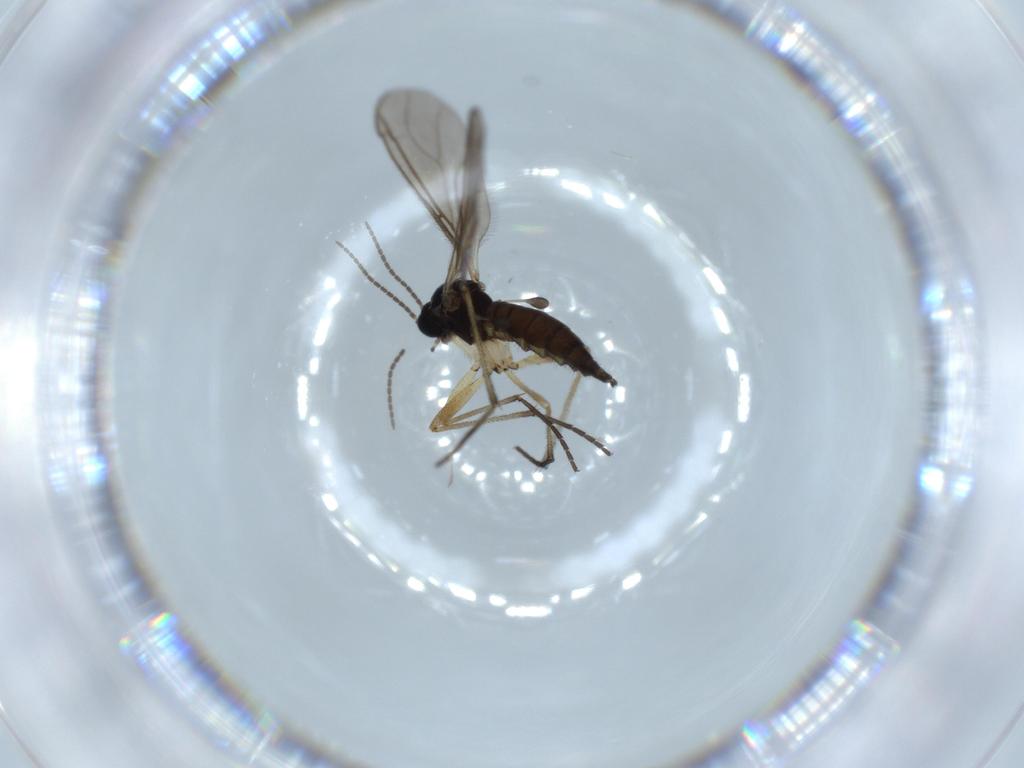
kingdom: Animalia
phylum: Arthropoda
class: Insecta
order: Diptera
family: Sciaridae
